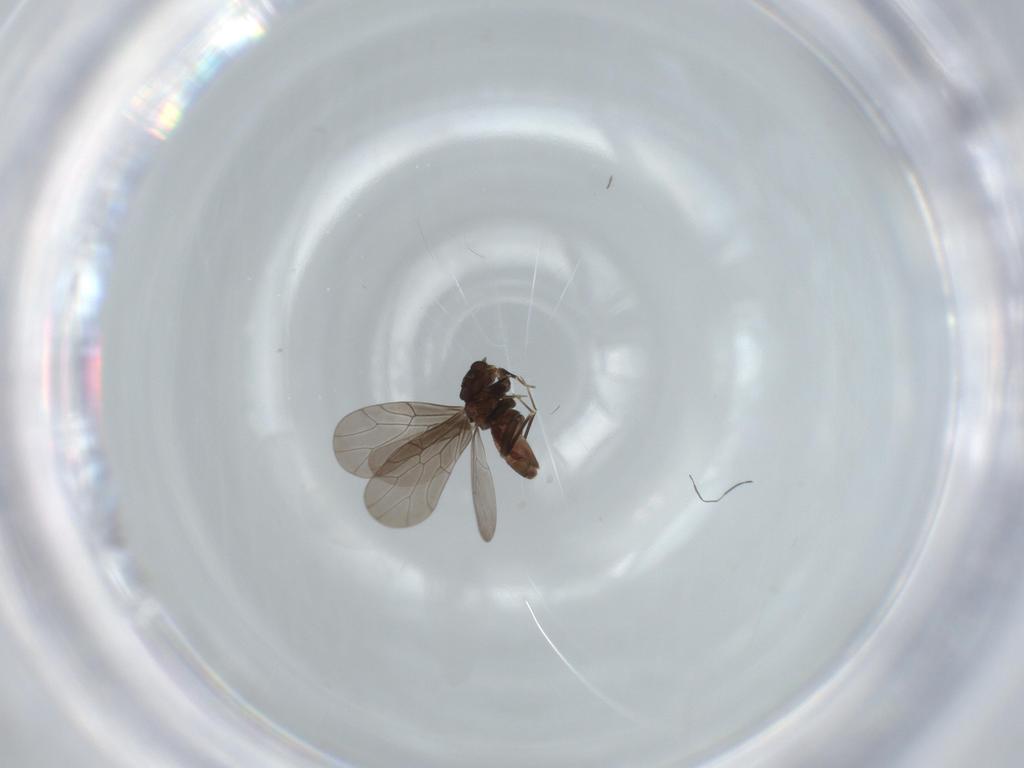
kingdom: Animalia
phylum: Arthropoda
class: Insecta
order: Psocodea
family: Lepidopsocidae
